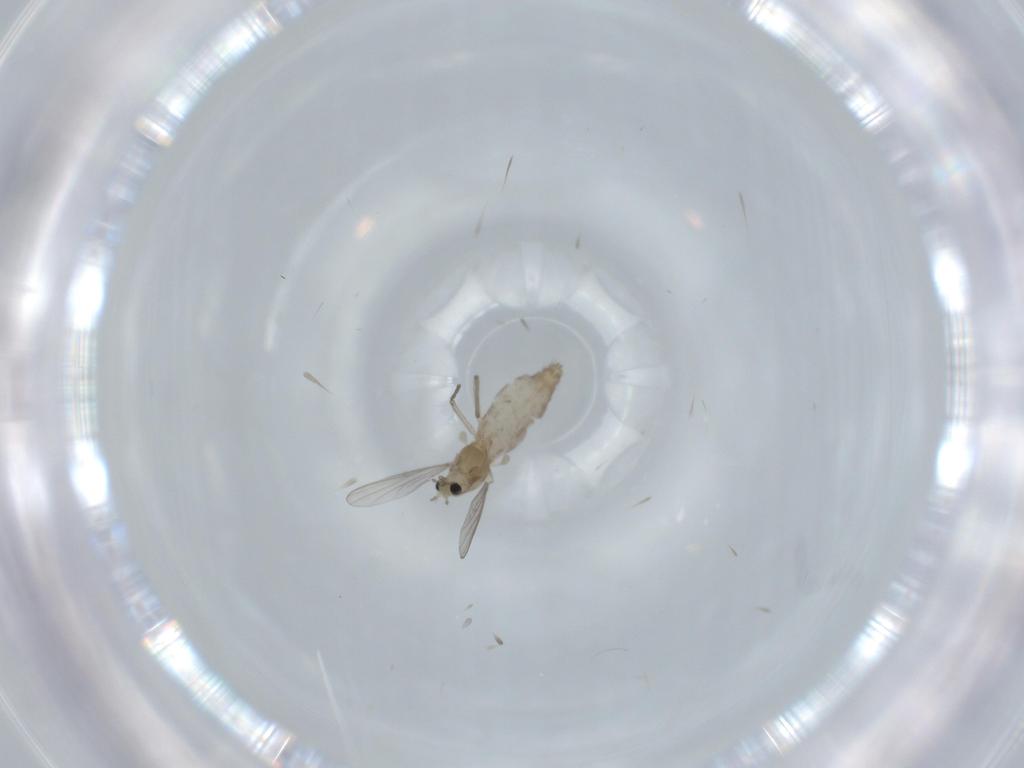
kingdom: Animalia
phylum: Arthropoda
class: Insecta
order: Diptera
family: Chironomidae
